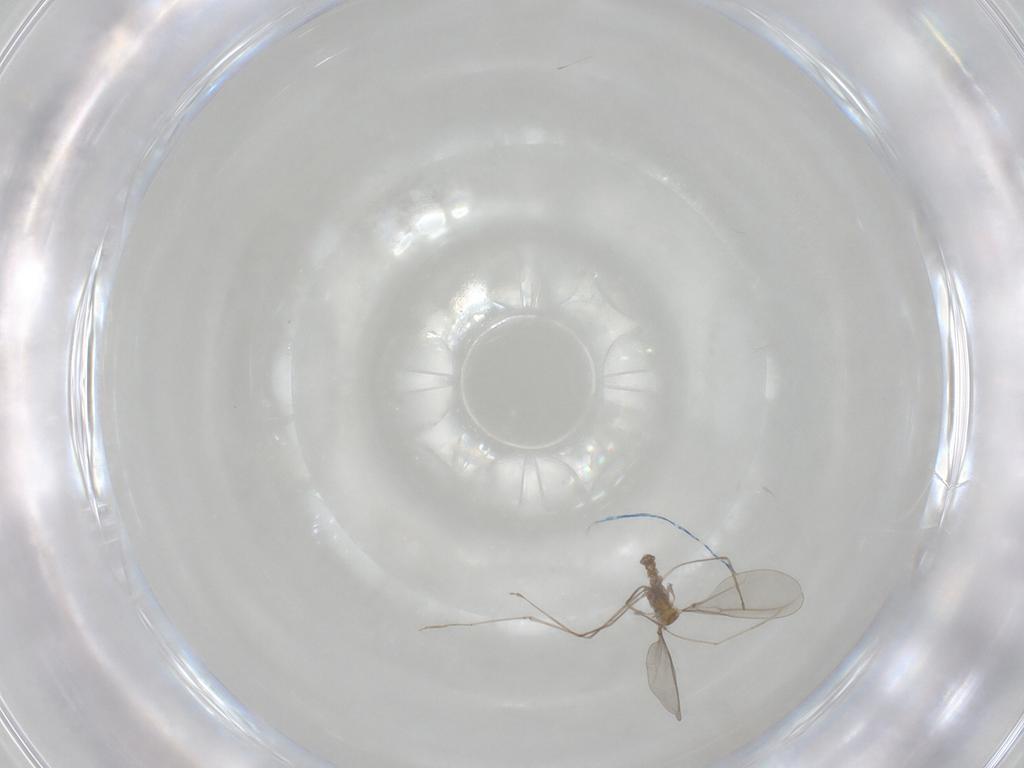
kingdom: Animalia
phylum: Arthropoda
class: Insecta
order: Diptera
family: Cecidomyiidae
